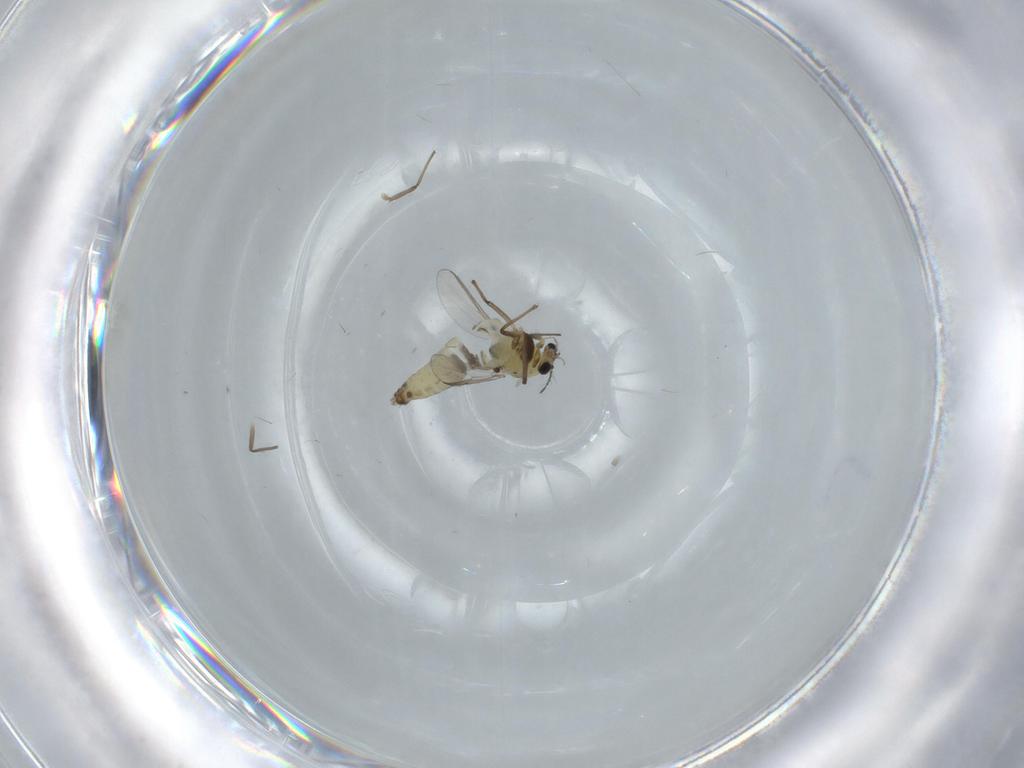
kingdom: Animalia
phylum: Arthropoda
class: Insecta
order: Diptera
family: Chironomidae
